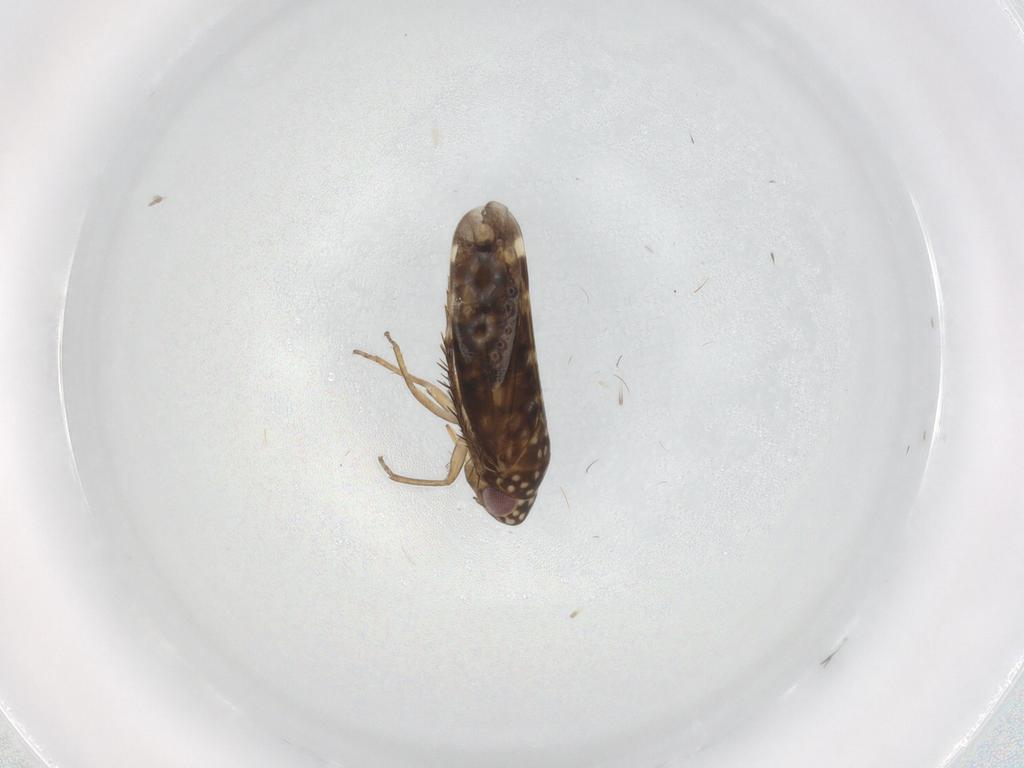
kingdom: Animalia
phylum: Arthropoda
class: Insecta
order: Hemiptera
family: Cicadellidae
